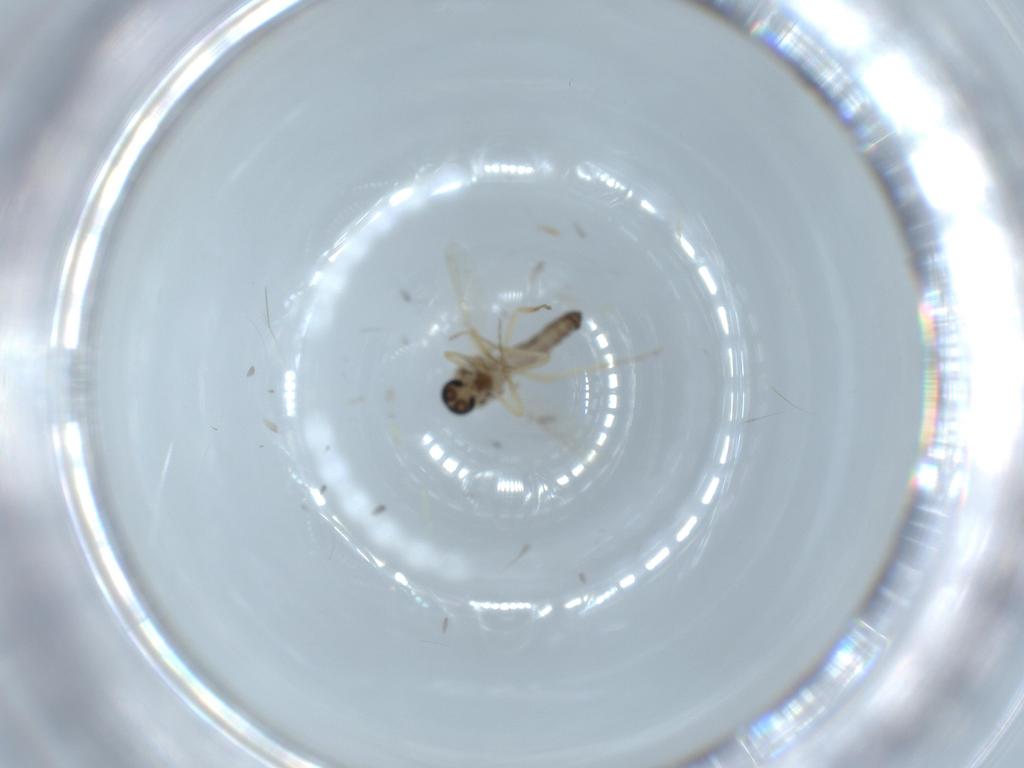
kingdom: Animalia
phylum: Arthropoda
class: Insecta
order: Diptera
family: Ceratopogonidae
